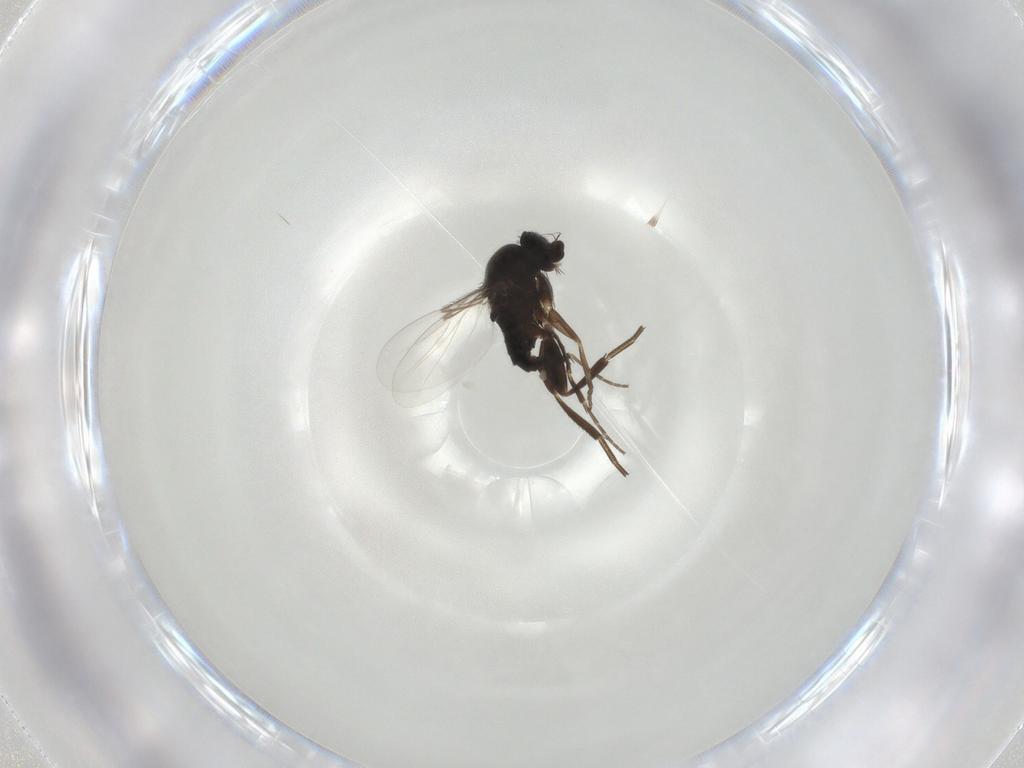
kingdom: Animalia
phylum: Arthropoda
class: Insecta
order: Diptera
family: Phoridae
